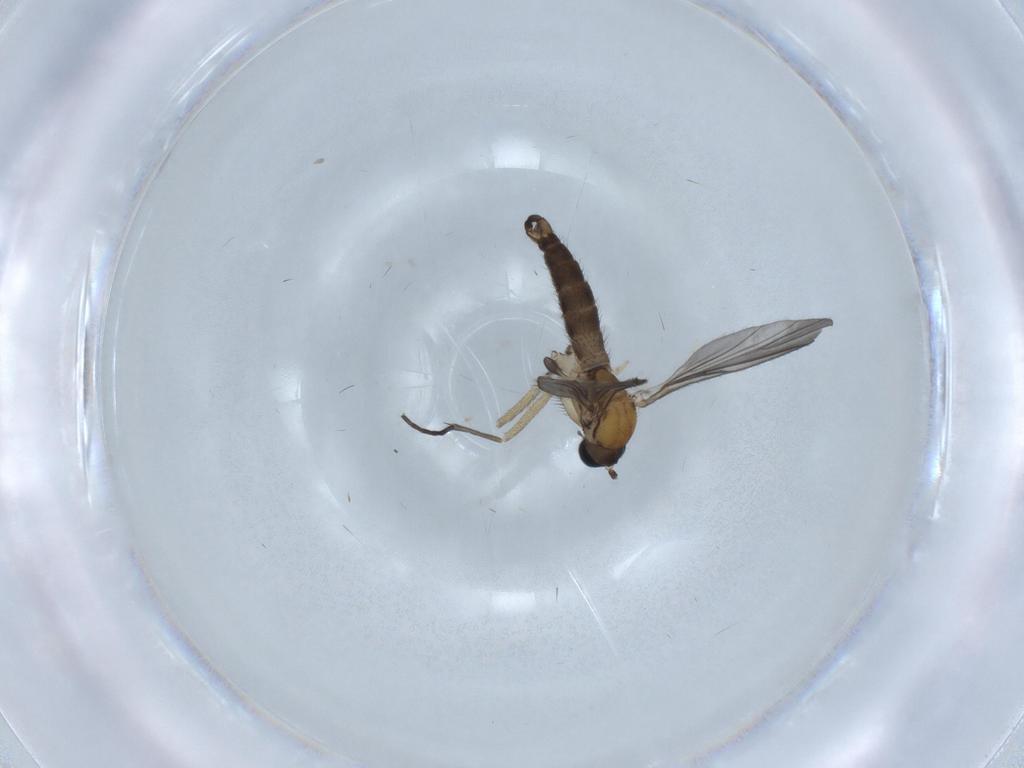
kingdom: Animalia
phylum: Arthropoda
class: Insecta
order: Diptera
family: Sciaridae
